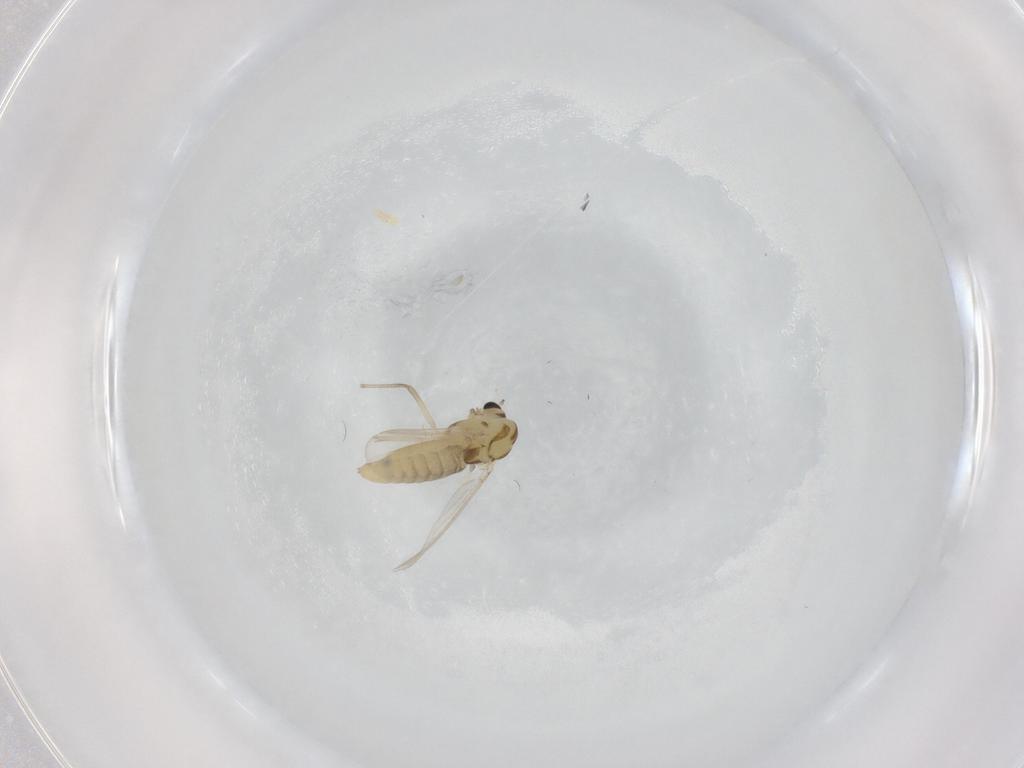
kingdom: Animalia
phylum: Arthropoda
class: Insecta
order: Diptera
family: Chironomidae
